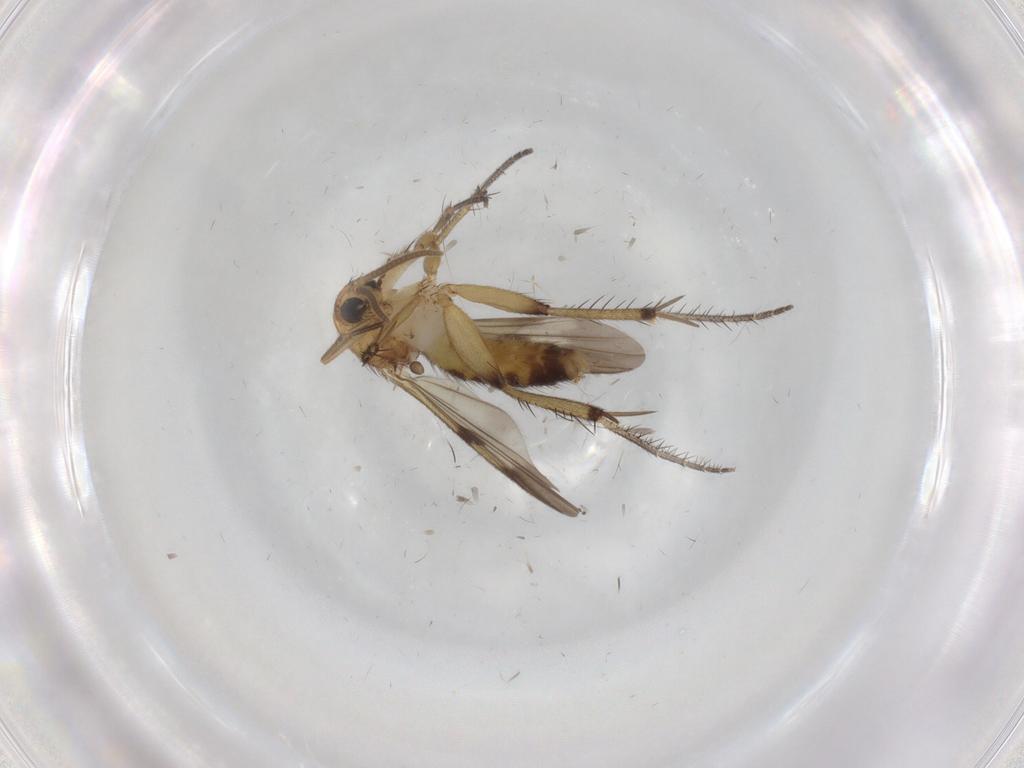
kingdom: Animalia
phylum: Arthropoda
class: Insecta
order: Diptera
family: Mycetophilidae
